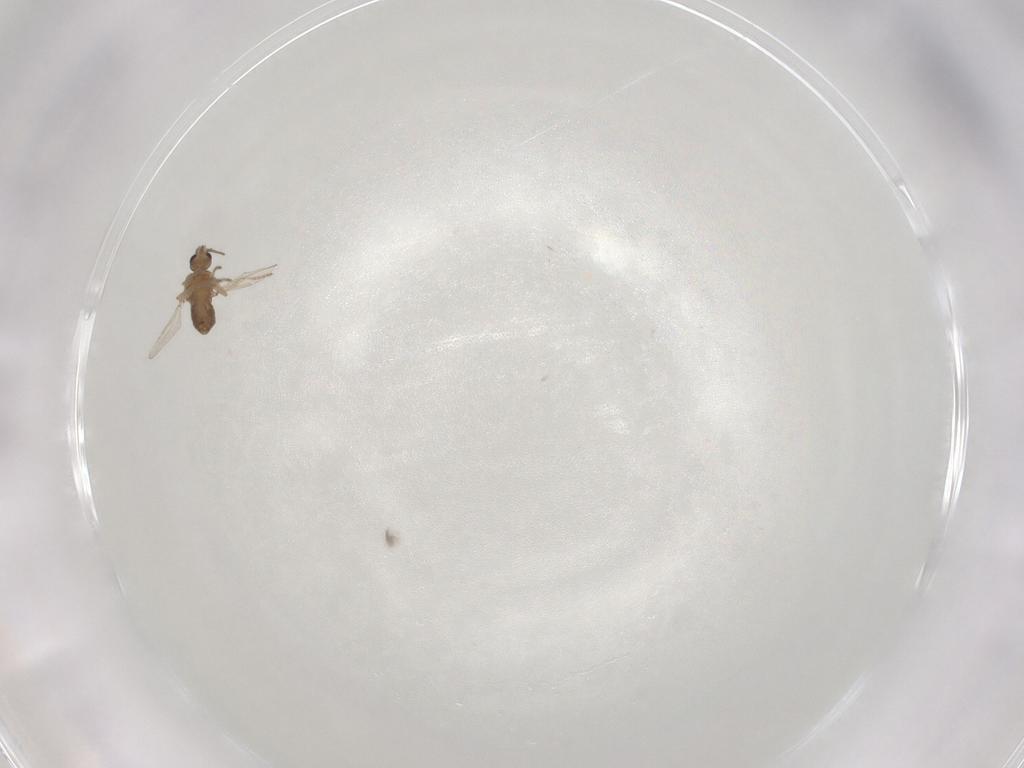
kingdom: Animalia
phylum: Arthropoda
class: Insecta
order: Diptera
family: Ceratopogonidae
